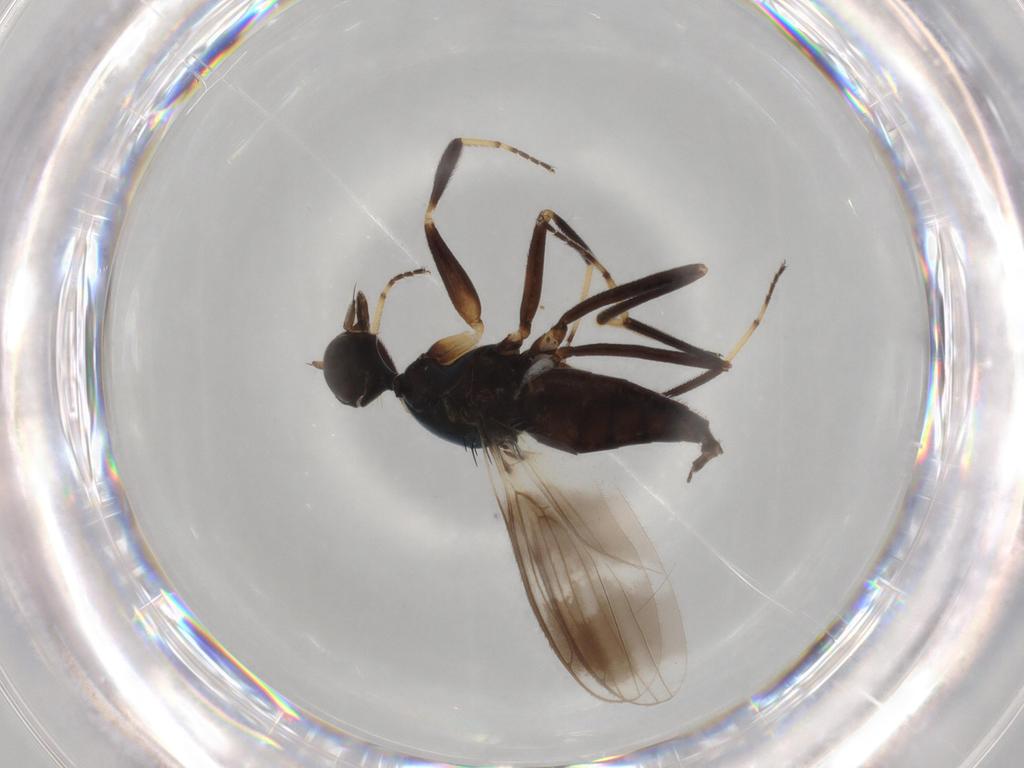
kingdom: Animalia
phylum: Arthropoda
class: Insecta
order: Diptera
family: Hybotidae
